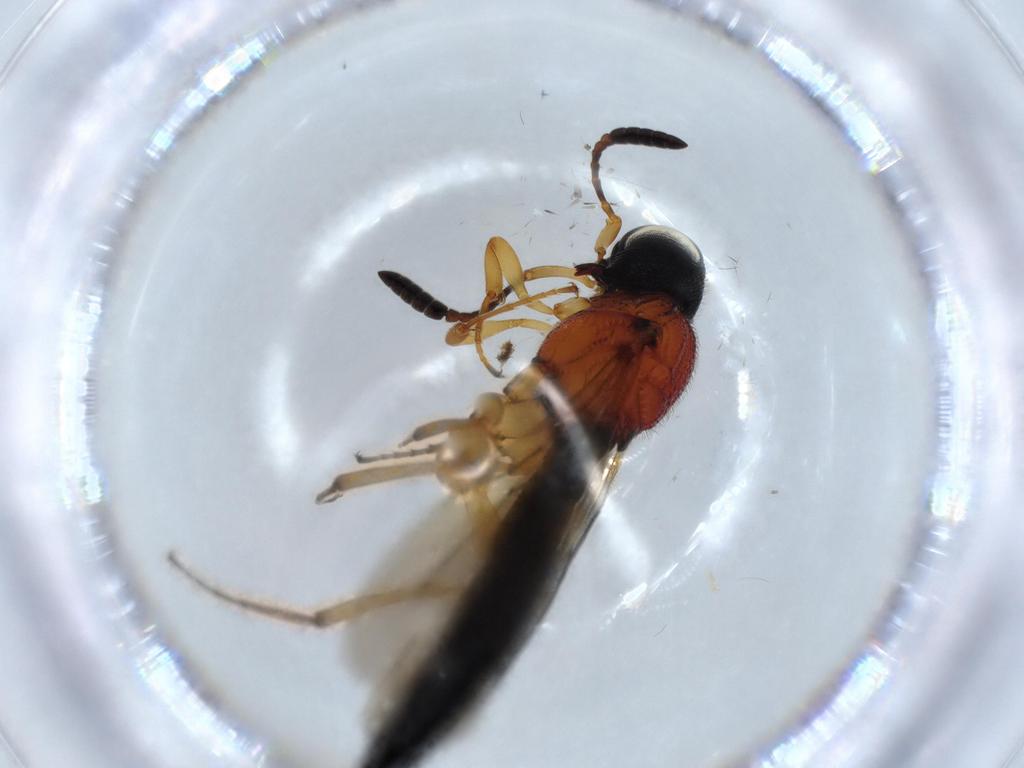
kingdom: Animalia
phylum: Arthropoda
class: Insecta
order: Hymenoptera
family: Scelionidae
